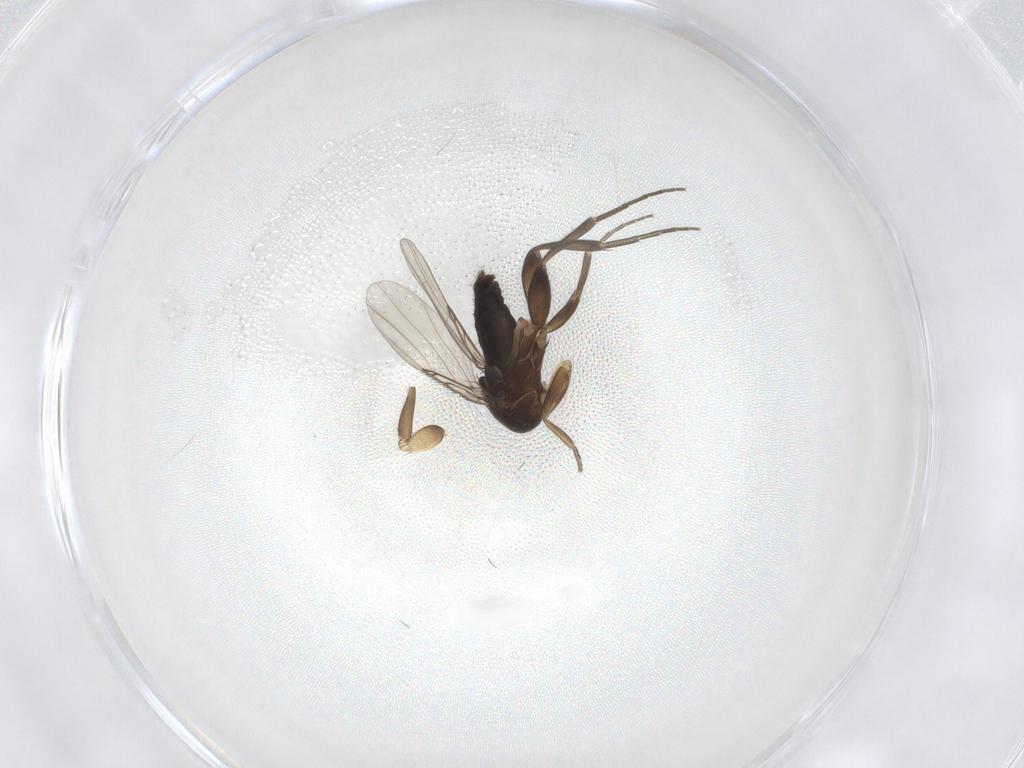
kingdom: Animalia
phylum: Arthropoda
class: Insecta
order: Diptera
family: Phoridae
